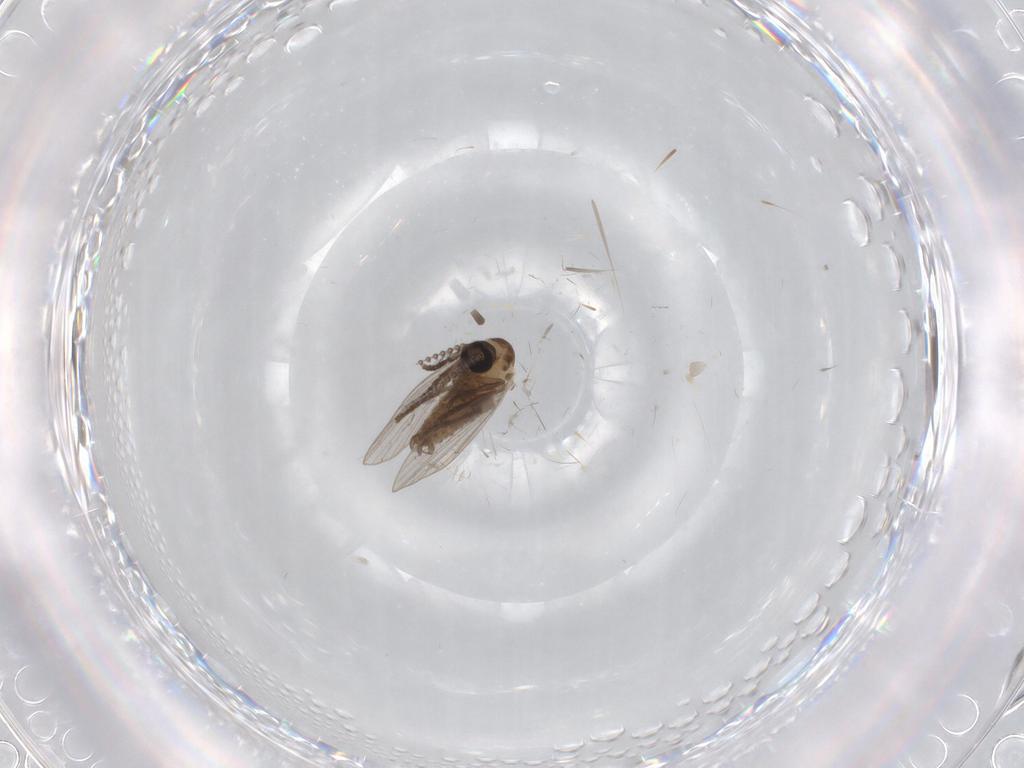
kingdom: Animalia
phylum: Arthropoda
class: Insecta
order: Diptera
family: Psychodidae
